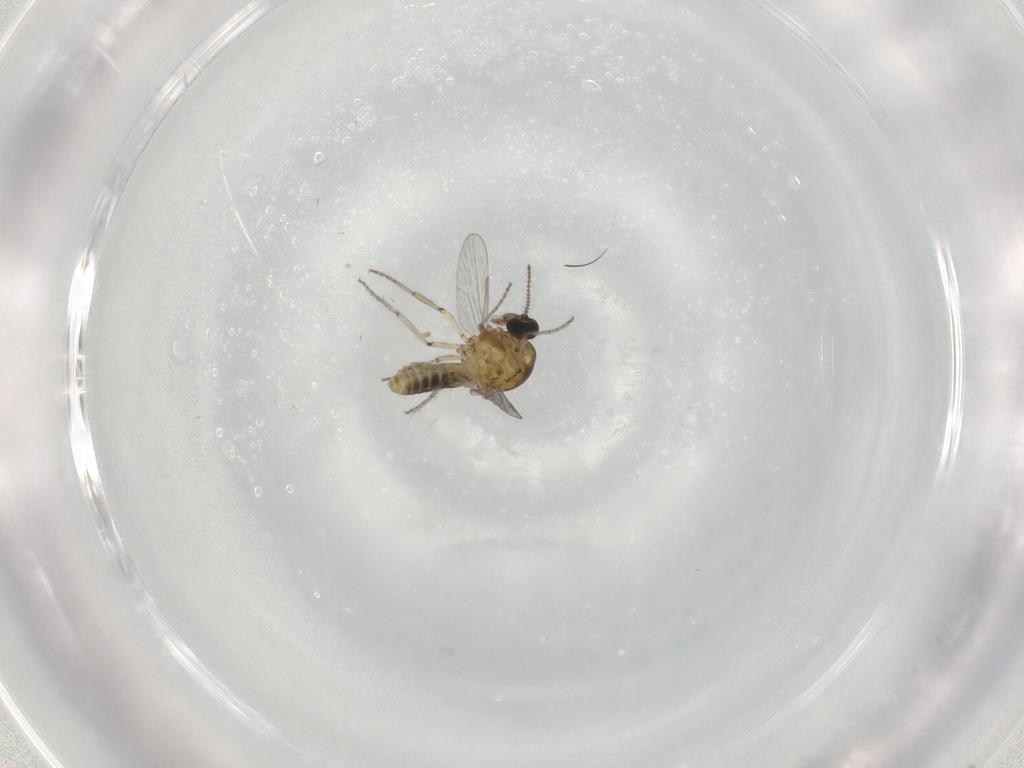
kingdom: Animalia
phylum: Arthropoda
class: Insecta
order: Diptera
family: Ceratopogonidae
